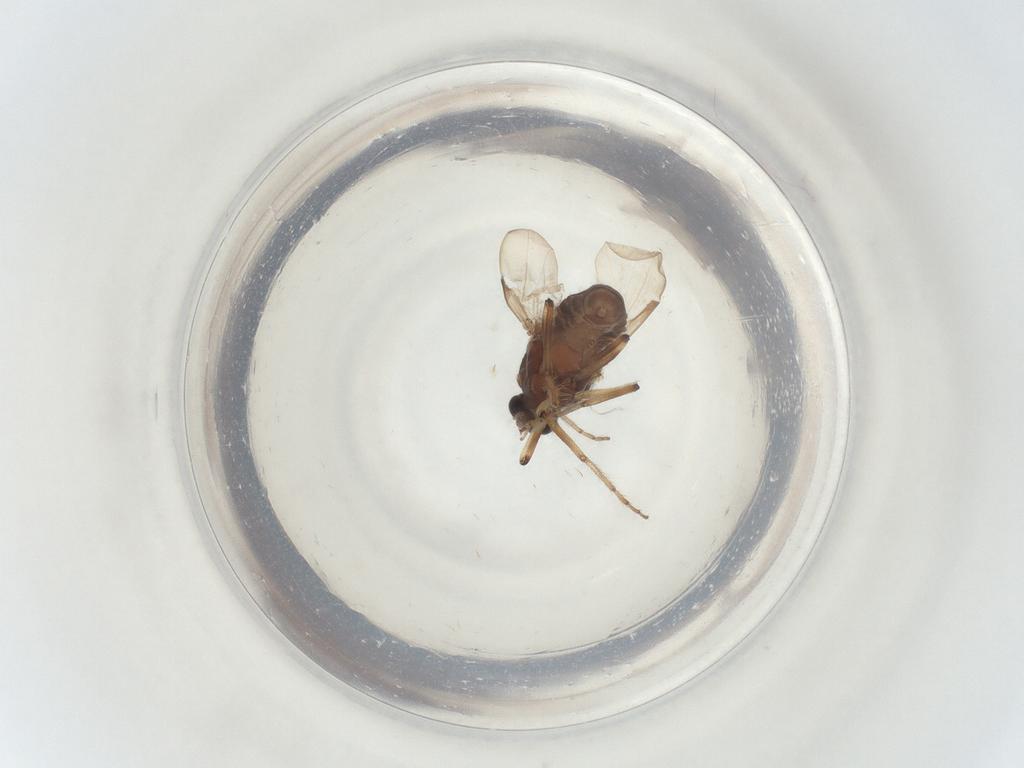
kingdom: Animalia
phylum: Arthropoda
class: Insecta
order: Diptera
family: Ceratopogonidae
